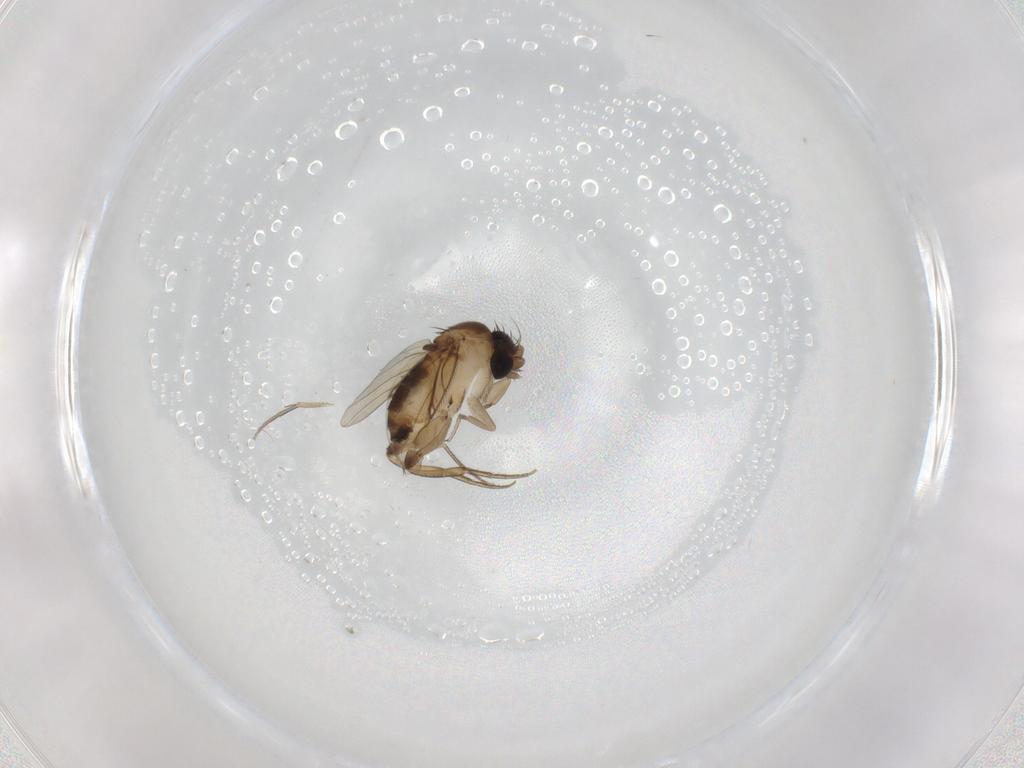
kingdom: Animalia
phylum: Arthropoda
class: Insecta
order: Diptera
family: Phoridae
